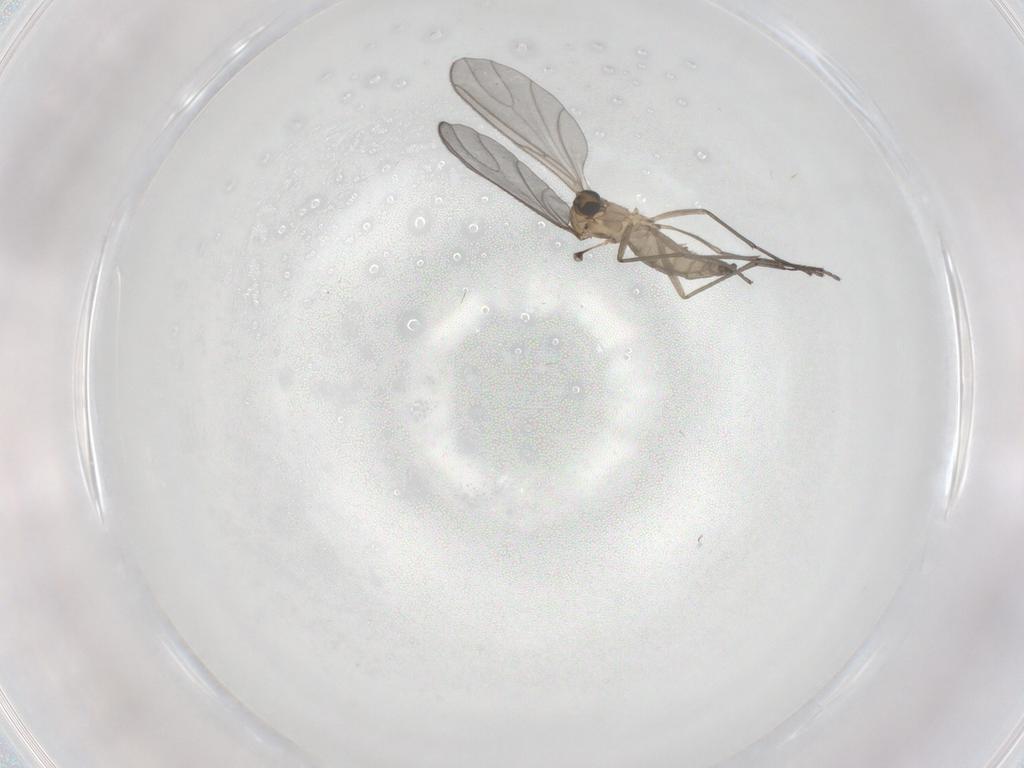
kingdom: Animalia
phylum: Arthropoda
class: Insecta
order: Diptera
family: Sciaridae
